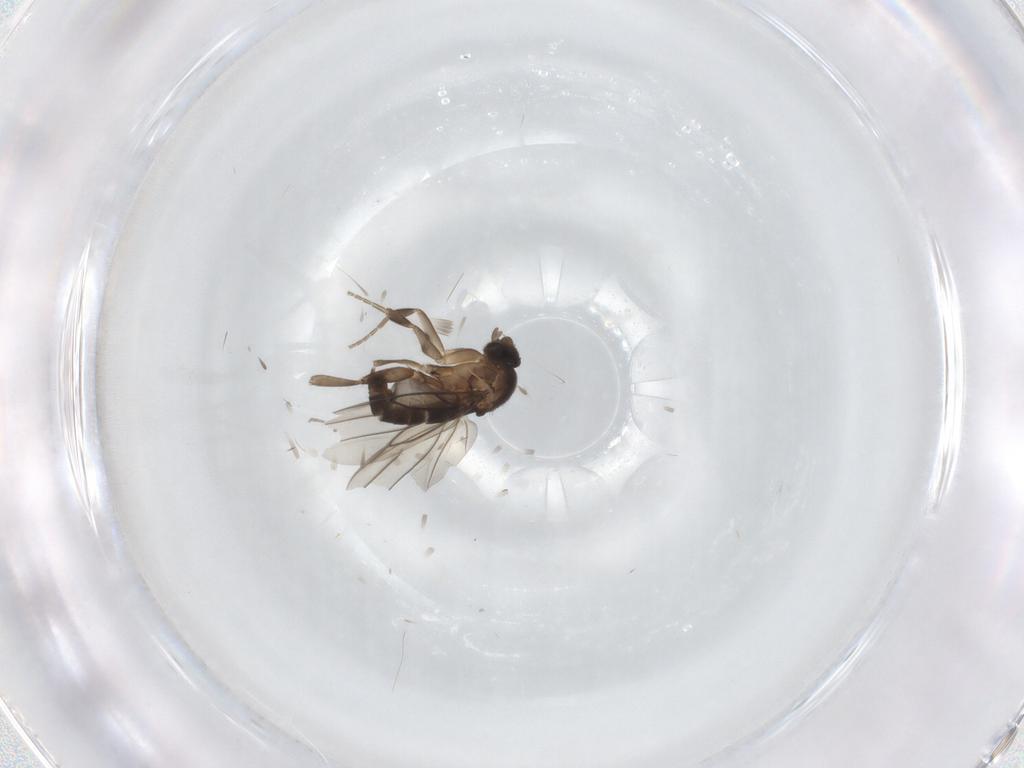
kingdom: Animalia
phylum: Arthropoda
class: Insecta
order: Diptera
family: Phoridae
